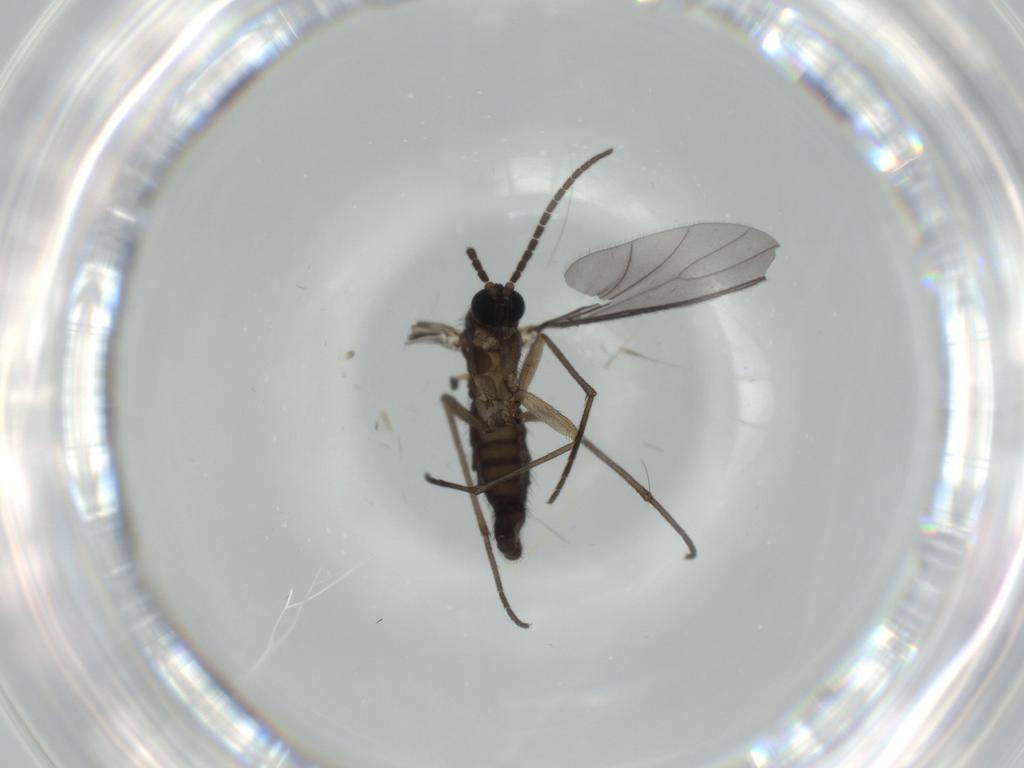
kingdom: Animalia
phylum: Arthropoda
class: Insecta
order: Diptera
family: Sciaridae
